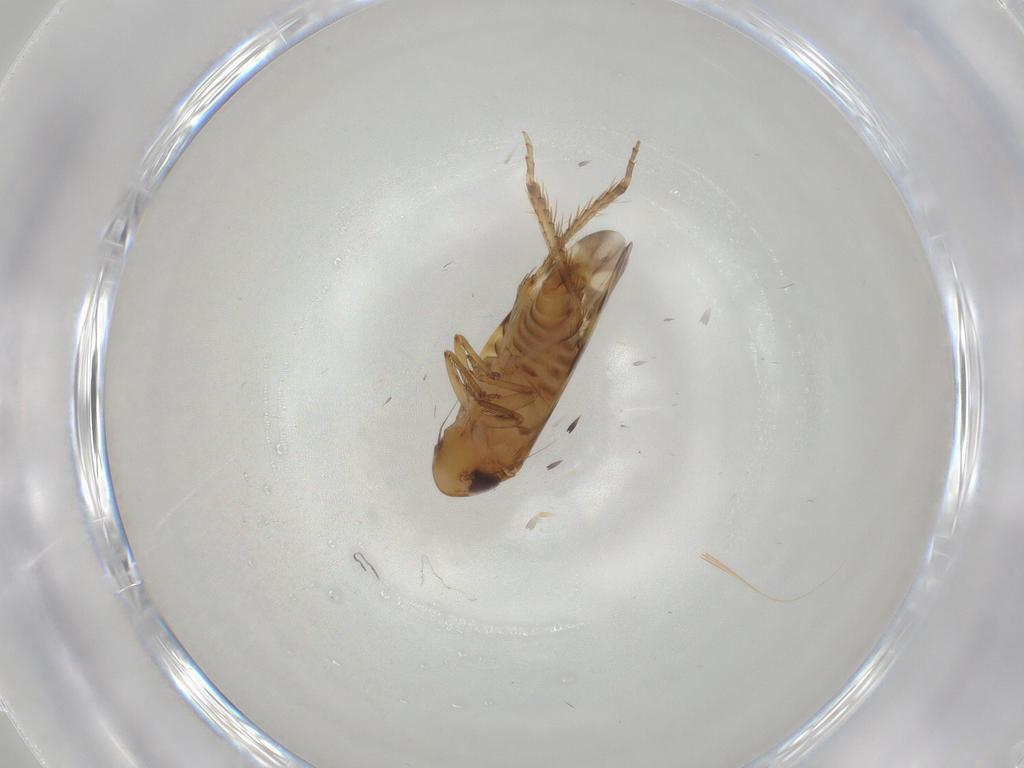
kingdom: Animalia
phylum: Arthropoda
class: Insecta
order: Hemiptera
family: Cicadellidae
